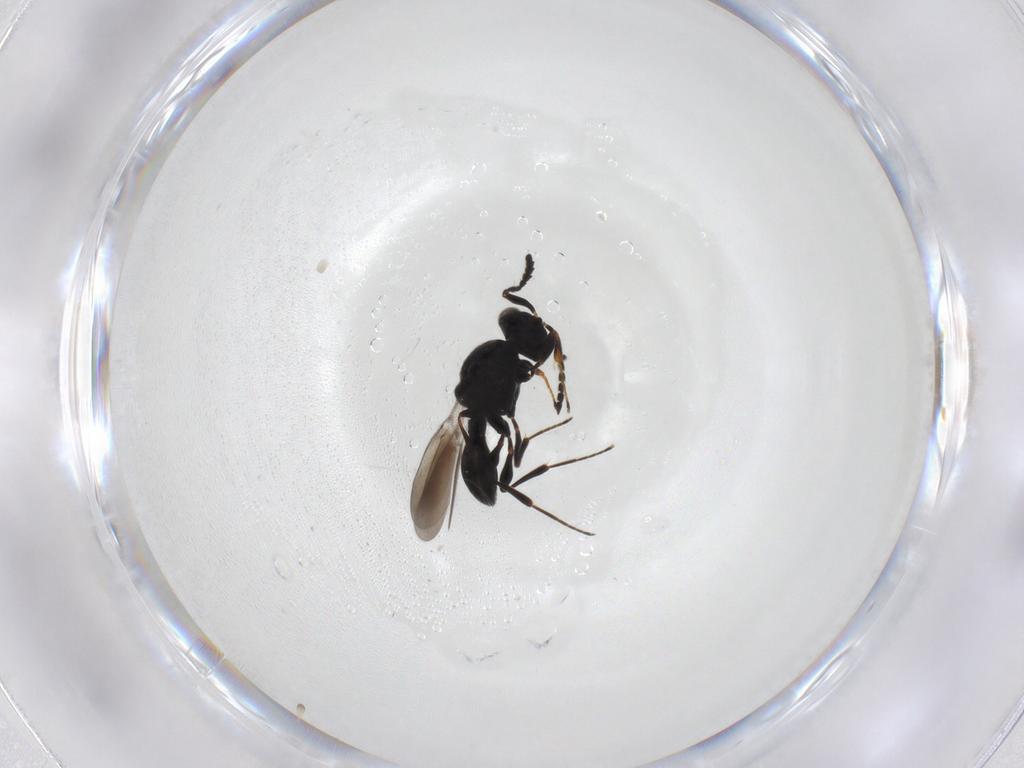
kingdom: Animalia
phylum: Arthropoda
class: Insecta
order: Hymenoptera
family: Platygastridae
